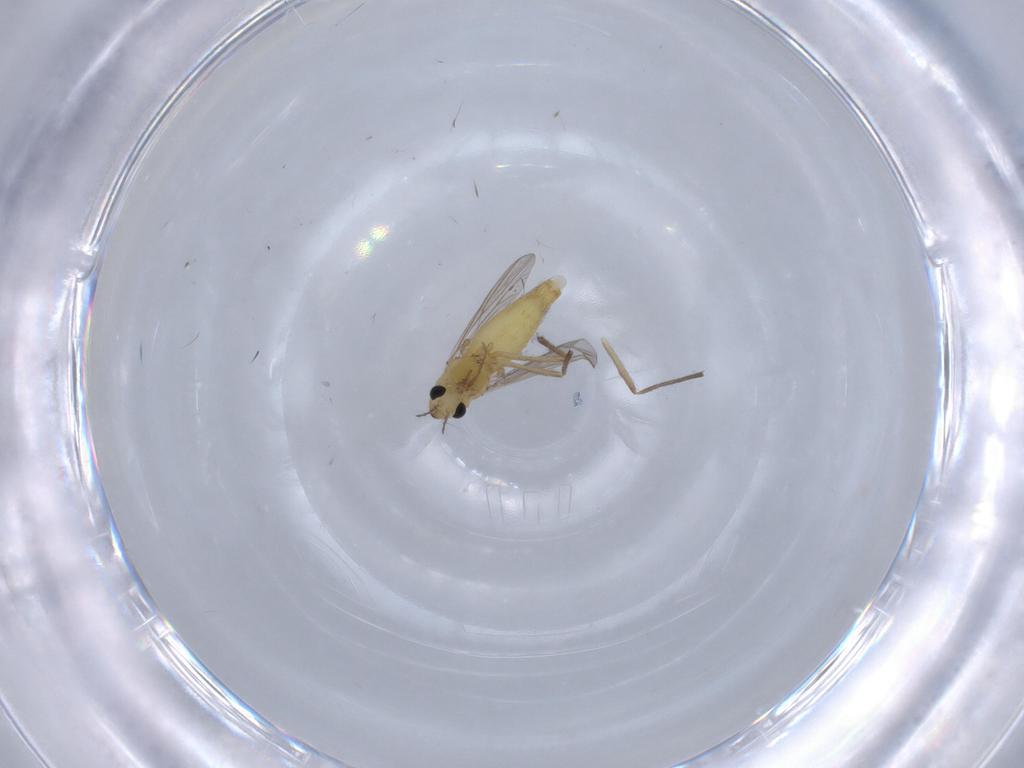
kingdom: Animalia
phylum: Arthropoda
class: Insecta
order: Diptera
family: Chironomidae
